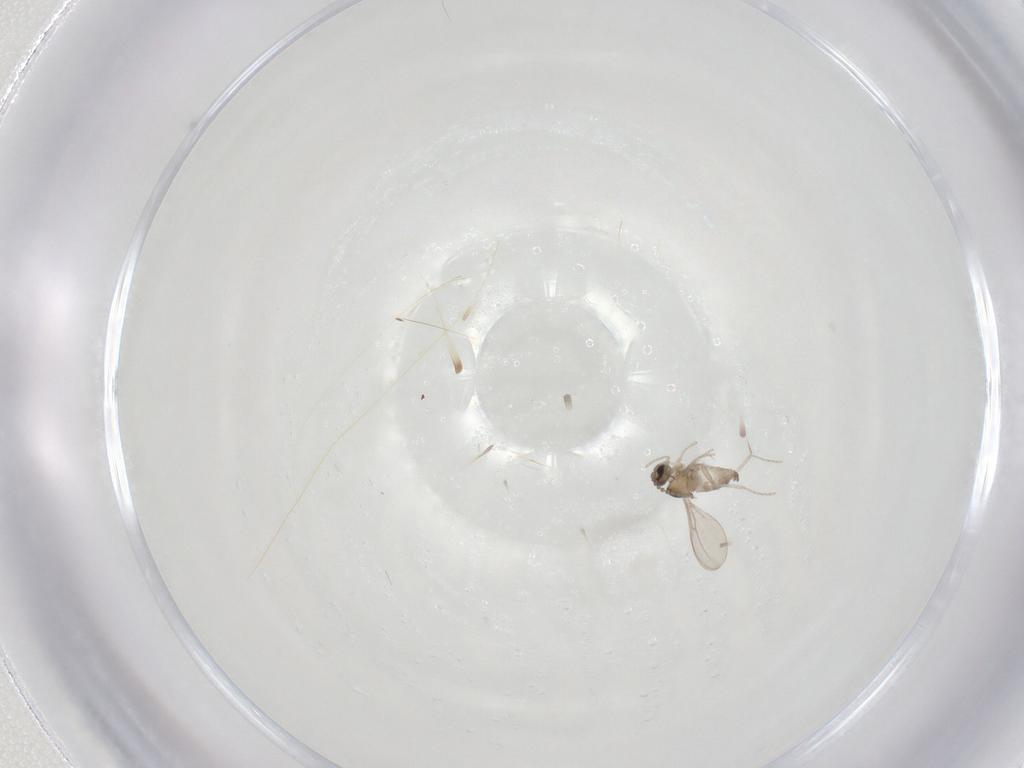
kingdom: Animalia
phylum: Arthropoda
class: Insecta
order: Diptera
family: Cecidomyiidae
